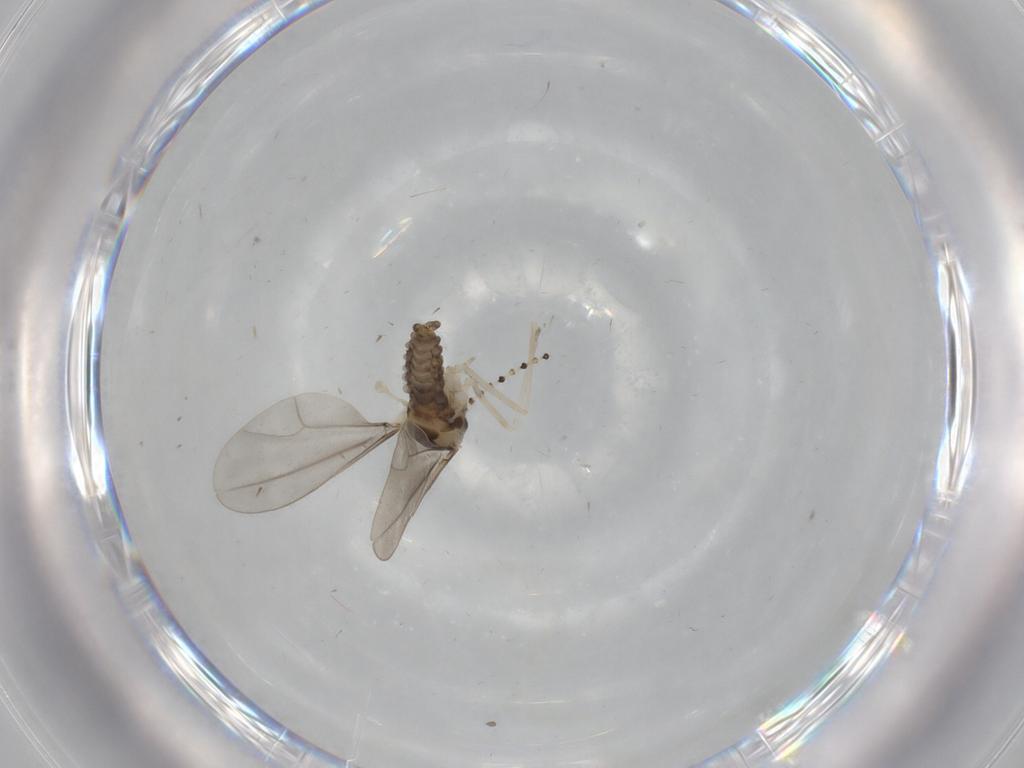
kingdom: Animalia
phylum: Arthropoda
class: Insecta
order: Diptera
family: Cecidomyiidae
